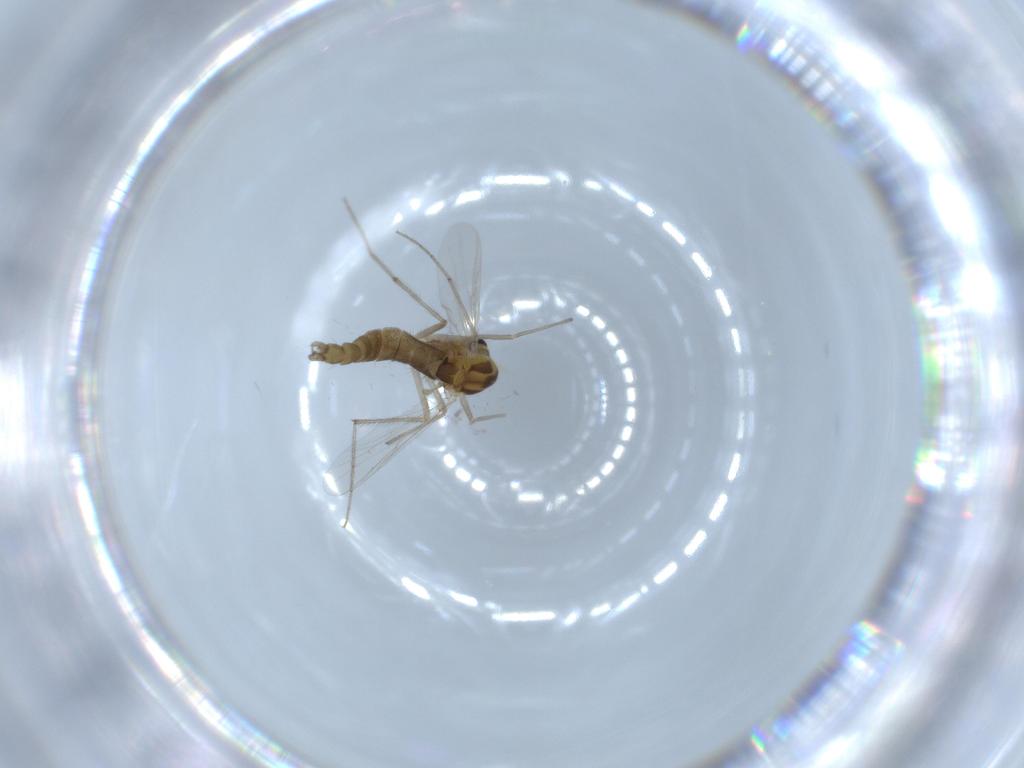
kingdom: Animalia
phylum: Arthropoda
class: Insecta
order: Diptera
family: Chironomidae
